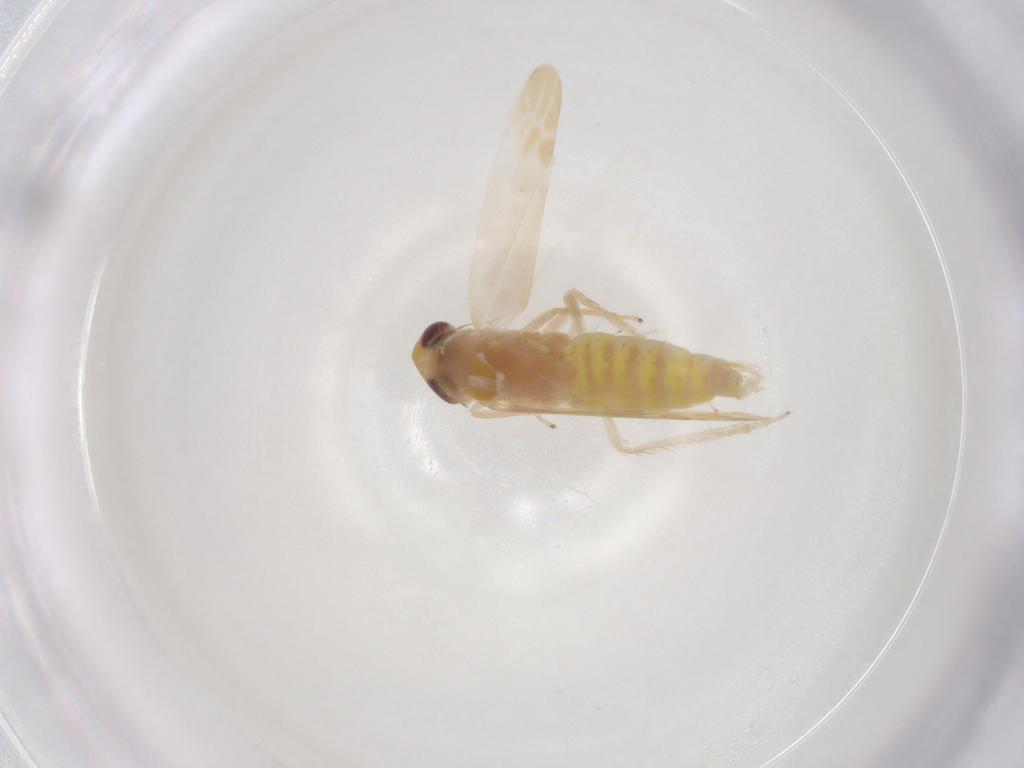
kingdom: Animalia
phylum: Arthropoda
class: Insecta
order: Hemiptera
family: Cicadellidae
